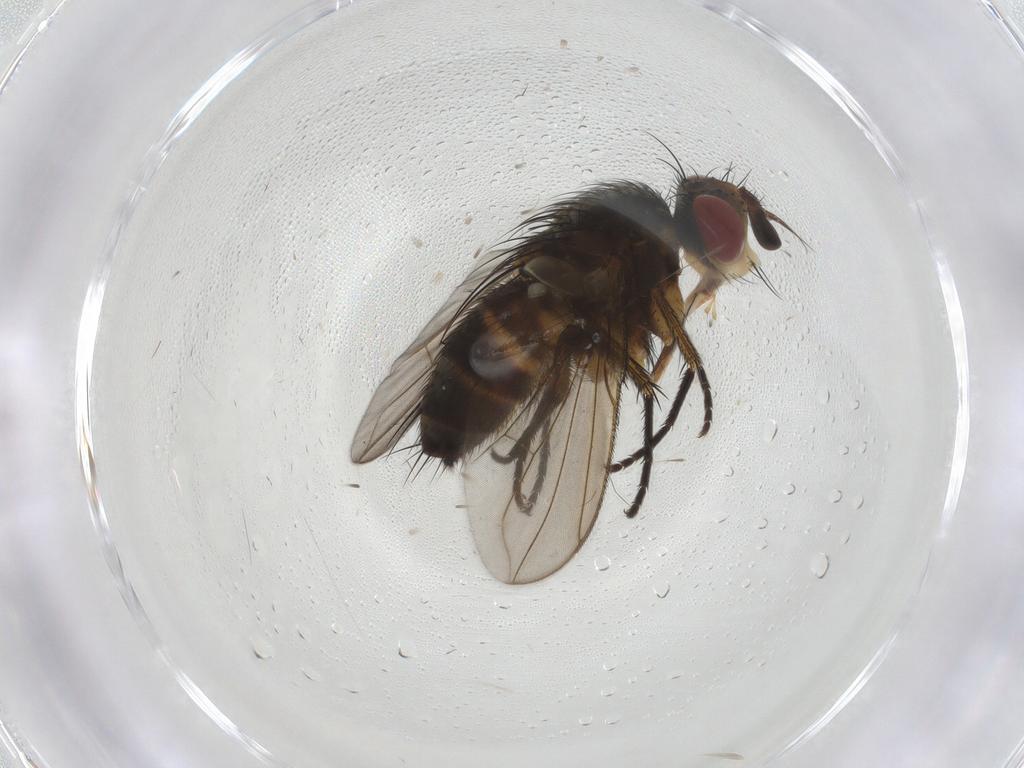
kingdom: Animalia
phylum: Arthropoda
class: Insecta
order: Diptera
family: Tachinidae
